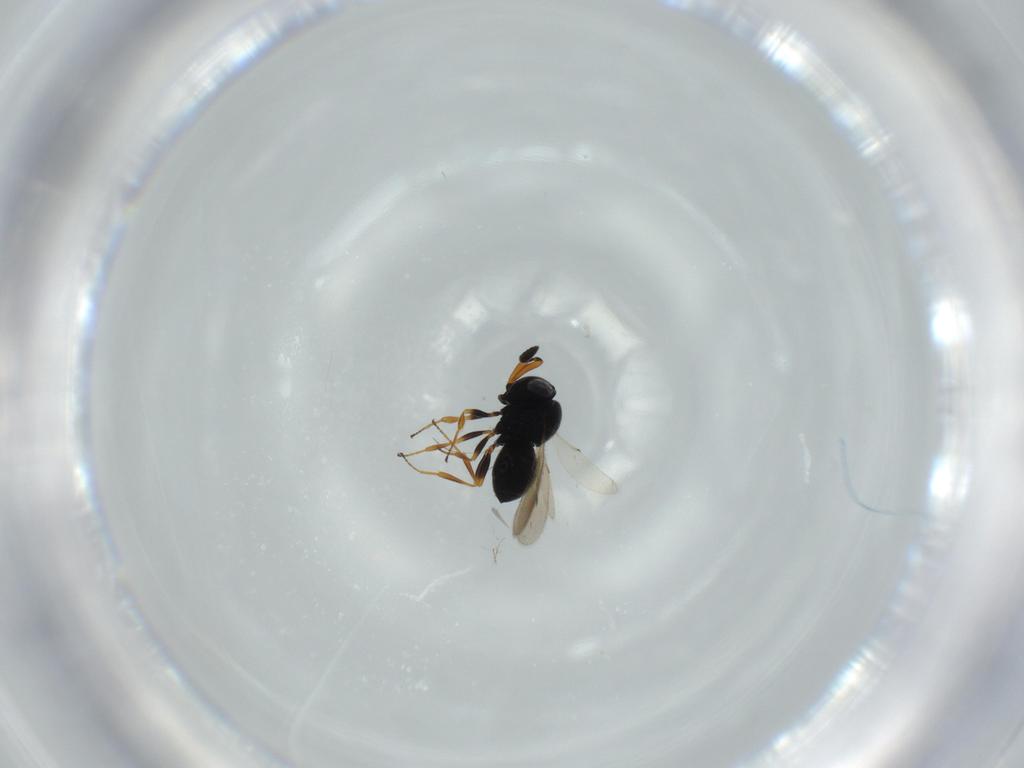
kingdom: Animalia
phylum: Arthropoda
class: Insecta
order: Hymenoptera
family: Scelionidae
